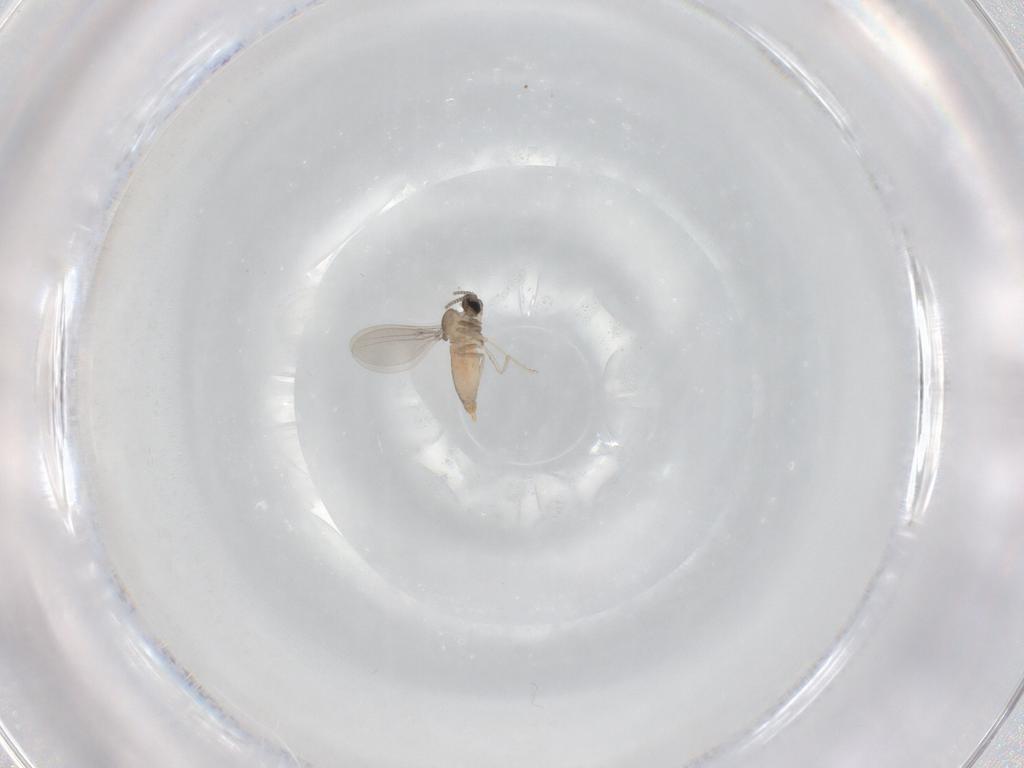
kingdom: Animalia
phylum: Arthropoda
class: Insecta
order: Diptera
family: Cecidomyiidae
